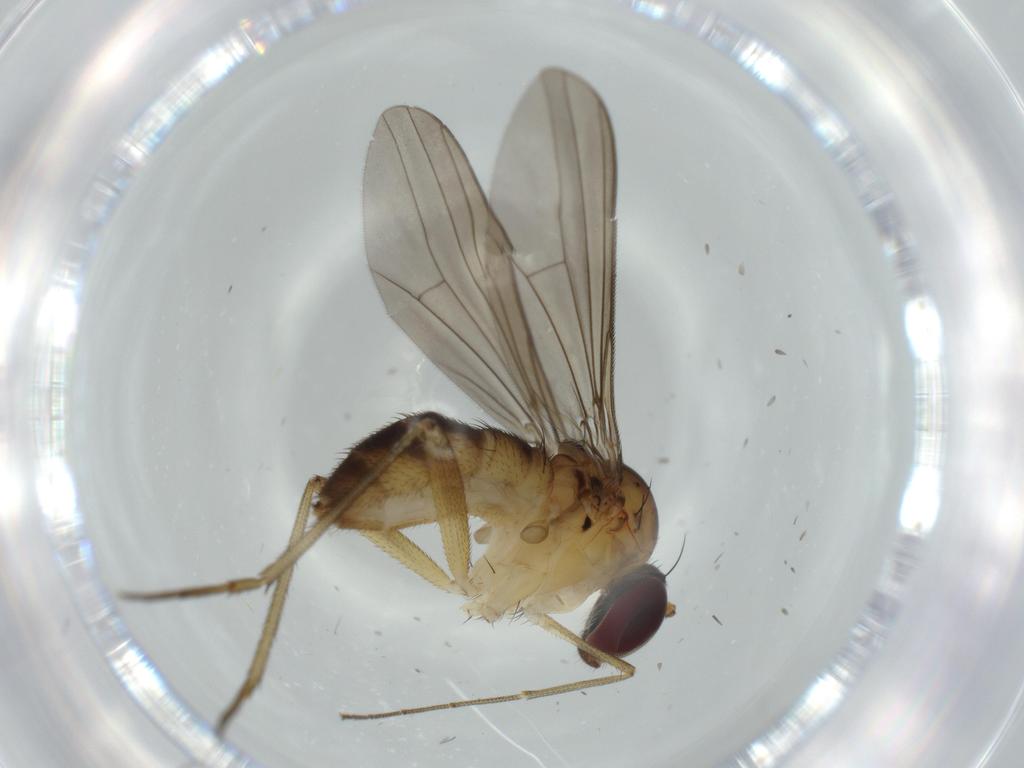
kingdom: Animalia
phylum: Arthropoda
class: Insecta
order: Diptera
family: Dolichopodidae
